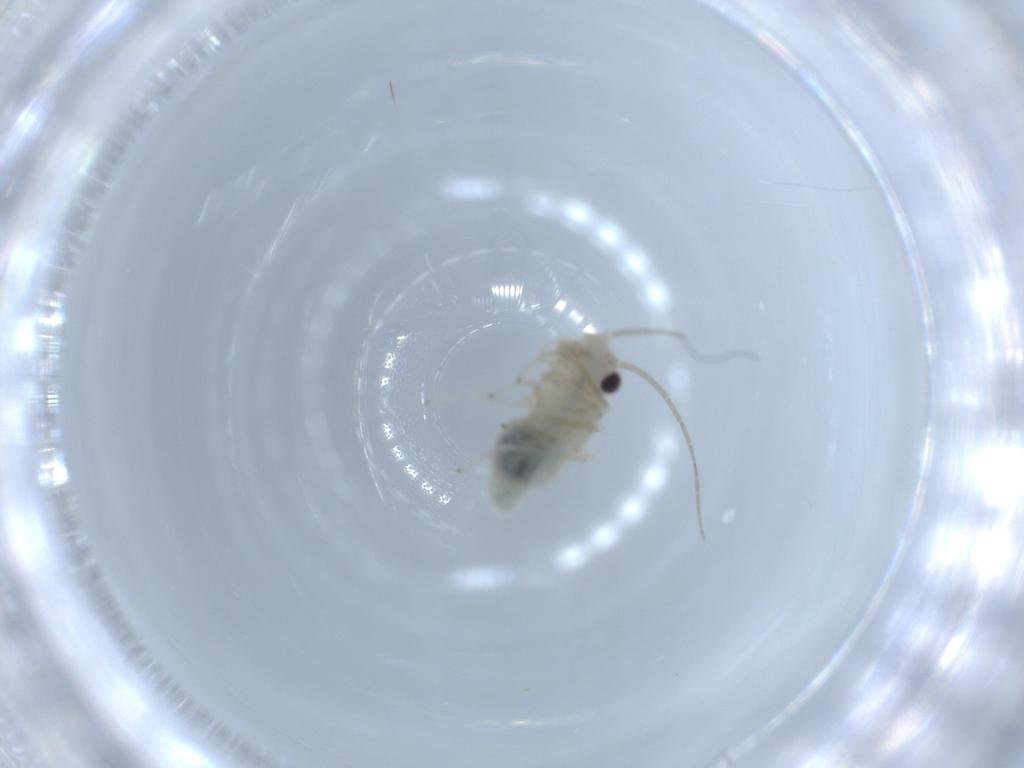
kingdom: Animalia
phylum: Arthropoda
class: Insecta
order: Psocodea
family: Caeciliusidae
